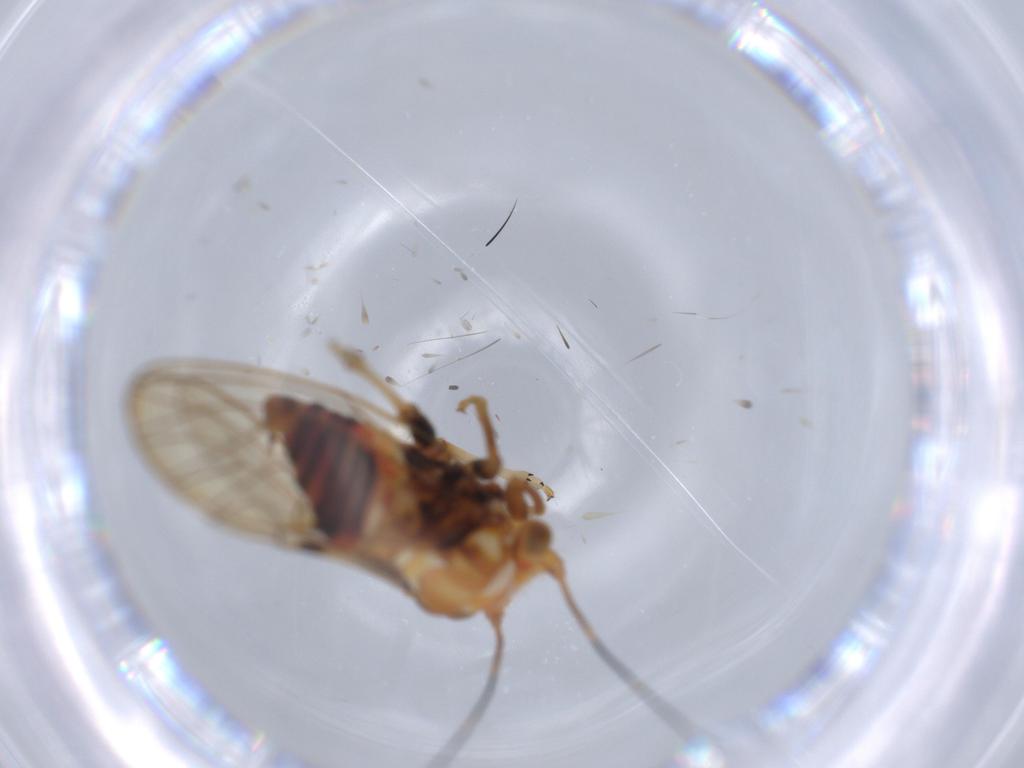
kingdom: Animalia
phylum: Arthropoda
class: Insecta
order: Hemiptera
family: Psyllidae
